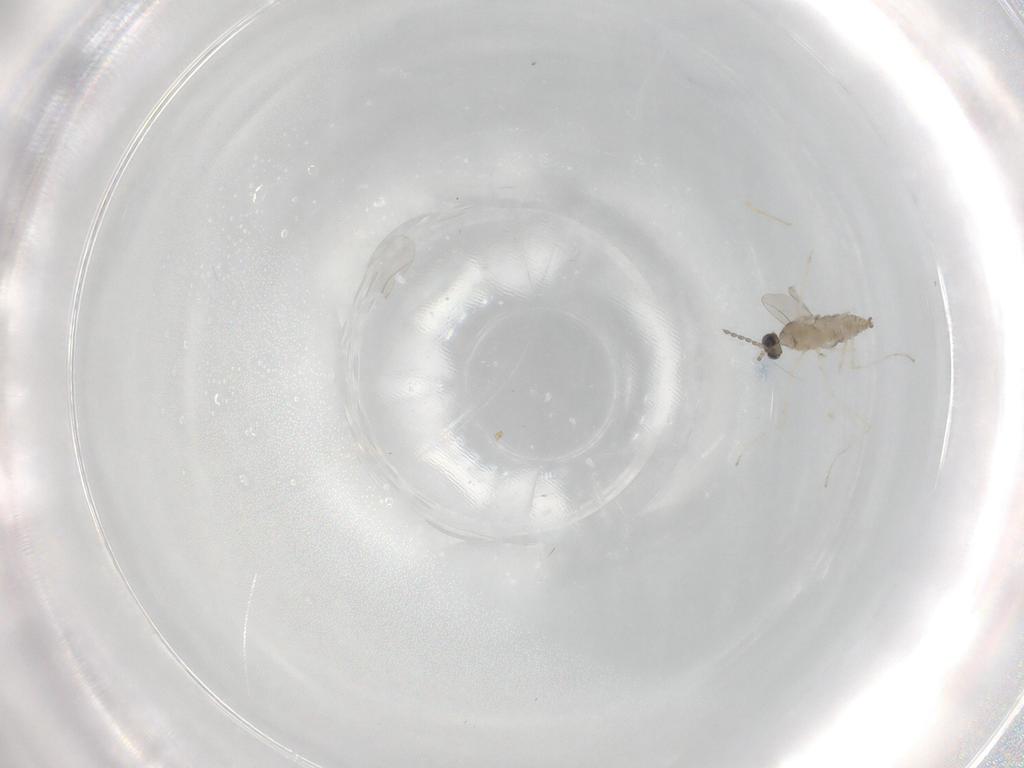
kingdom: Animalia
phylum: Arthropoda
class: Insecta
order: Diptera
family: Cecidomyiidae
